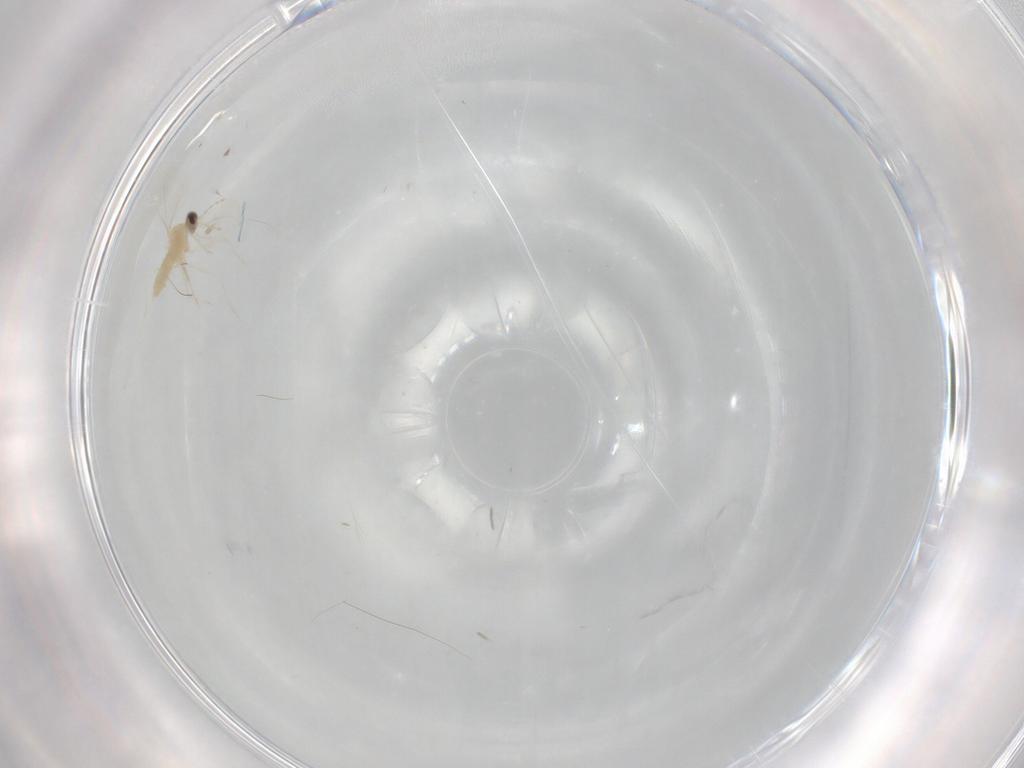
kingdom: Animalia
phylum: Arthropoda
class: Insecta
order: Diptera
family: Cecidomyiidae
